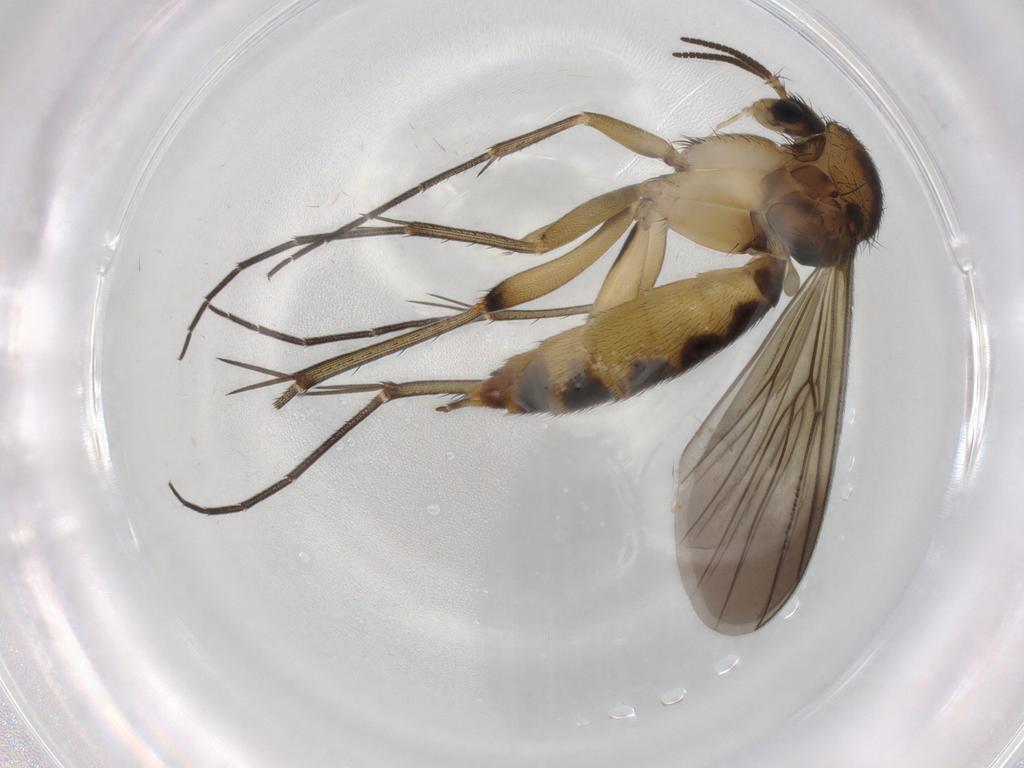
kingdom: Animalia
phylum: Arthropoda
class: Insecta
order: Diptera
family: Sciaridae
